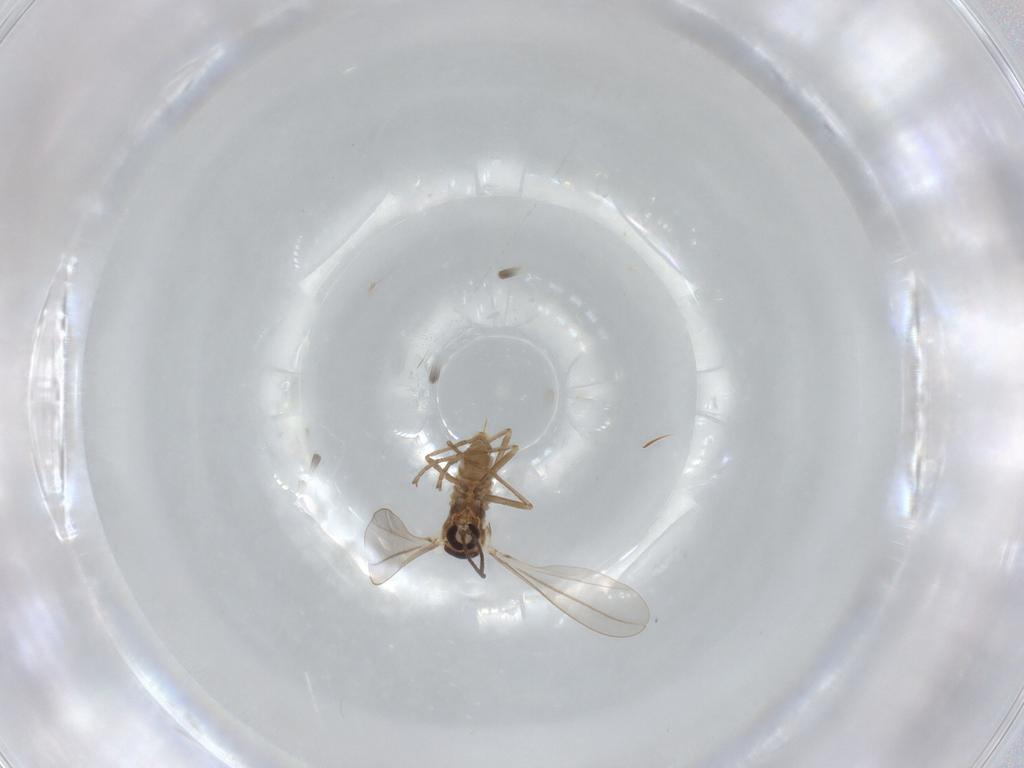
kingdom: Animalia
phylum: Arthropoda
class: Insecta
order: Diptera
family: Cecidomyiidae
